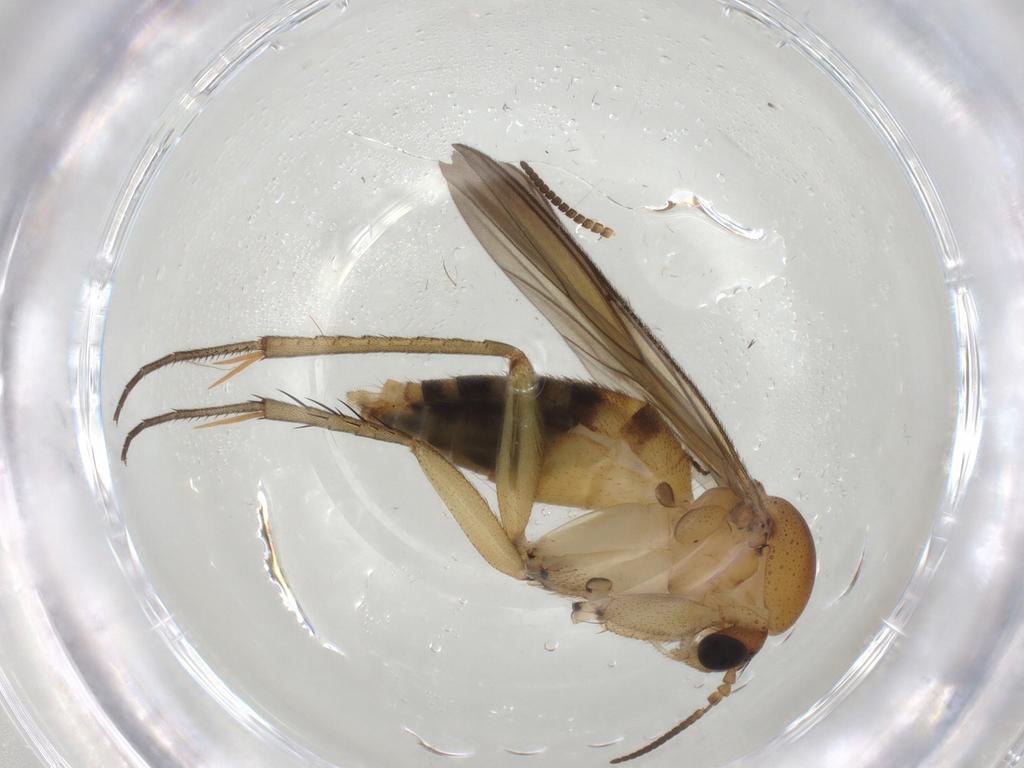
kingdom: Animalia
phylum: Arthropoda
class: Insecta
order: Diptera
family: Mycetophilidae
